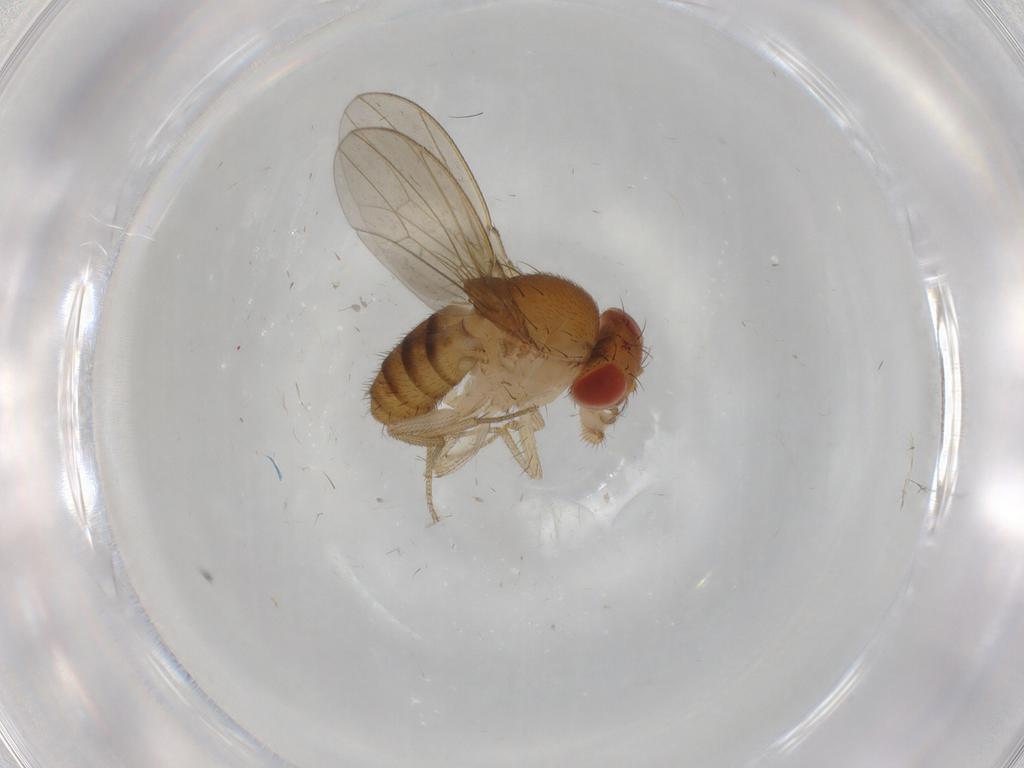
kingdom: Animalia
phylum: Arthropoda
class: Insecta
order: Diptera
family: Drosophilidae
